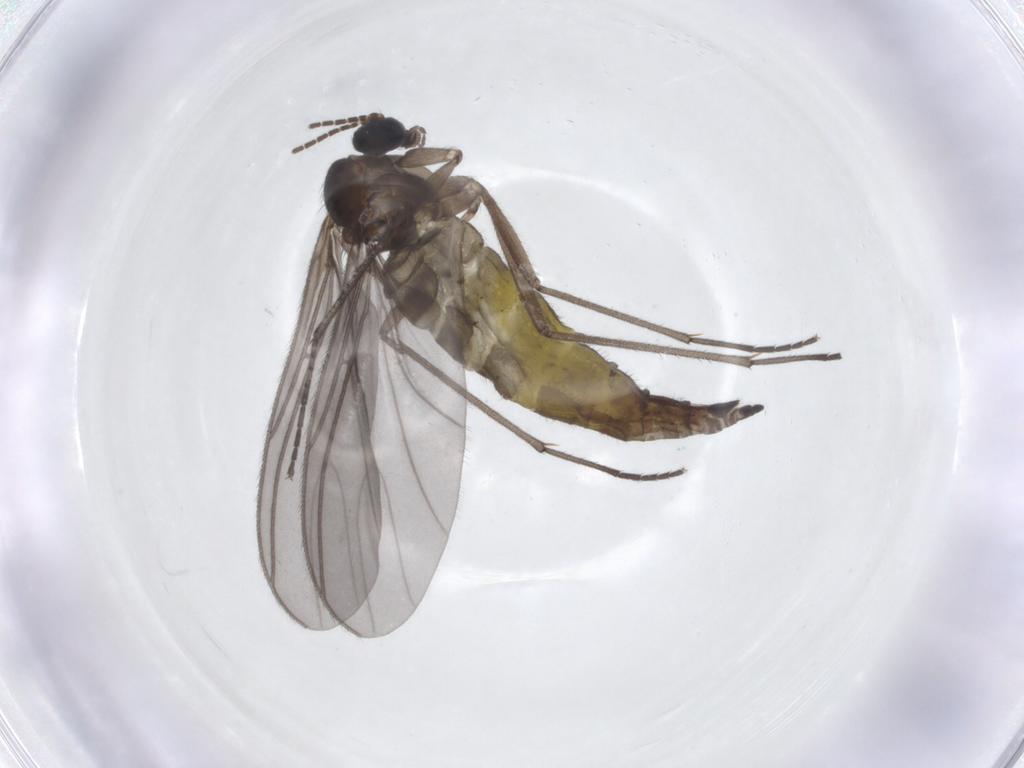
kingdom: Animalia
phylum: Arthropoda
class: Insecta
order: Diptera
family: Sciaridae
